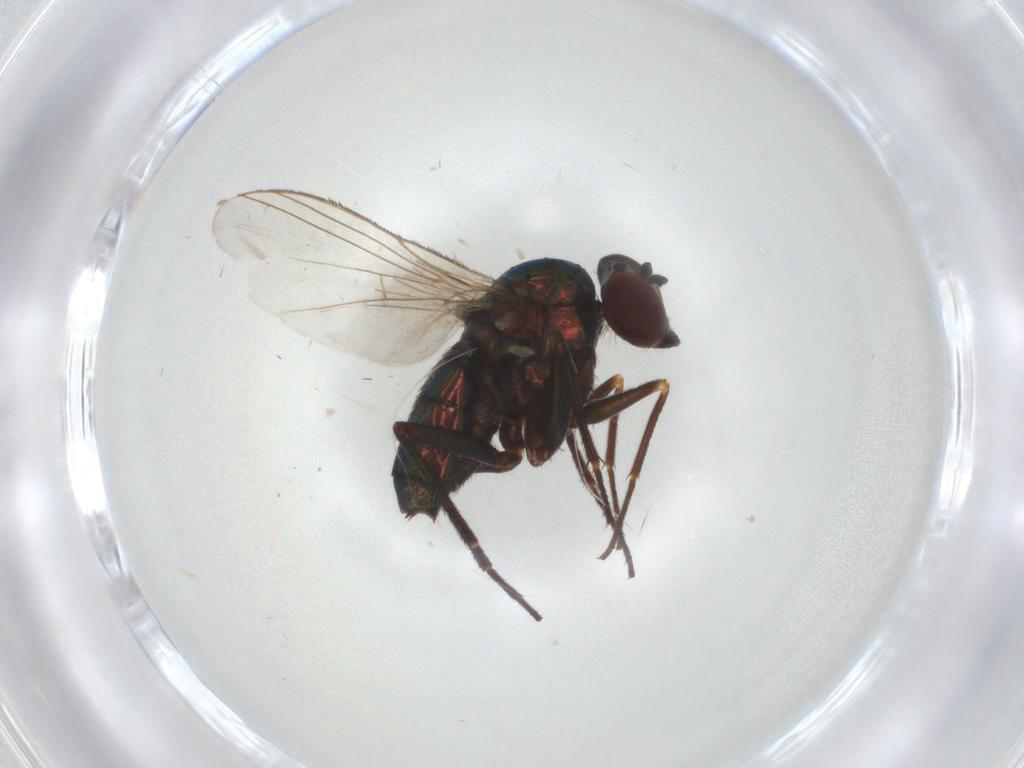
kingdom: Animalia
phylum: Arthropoda
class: Insecta
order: Diptera
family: Dolichopodidae
